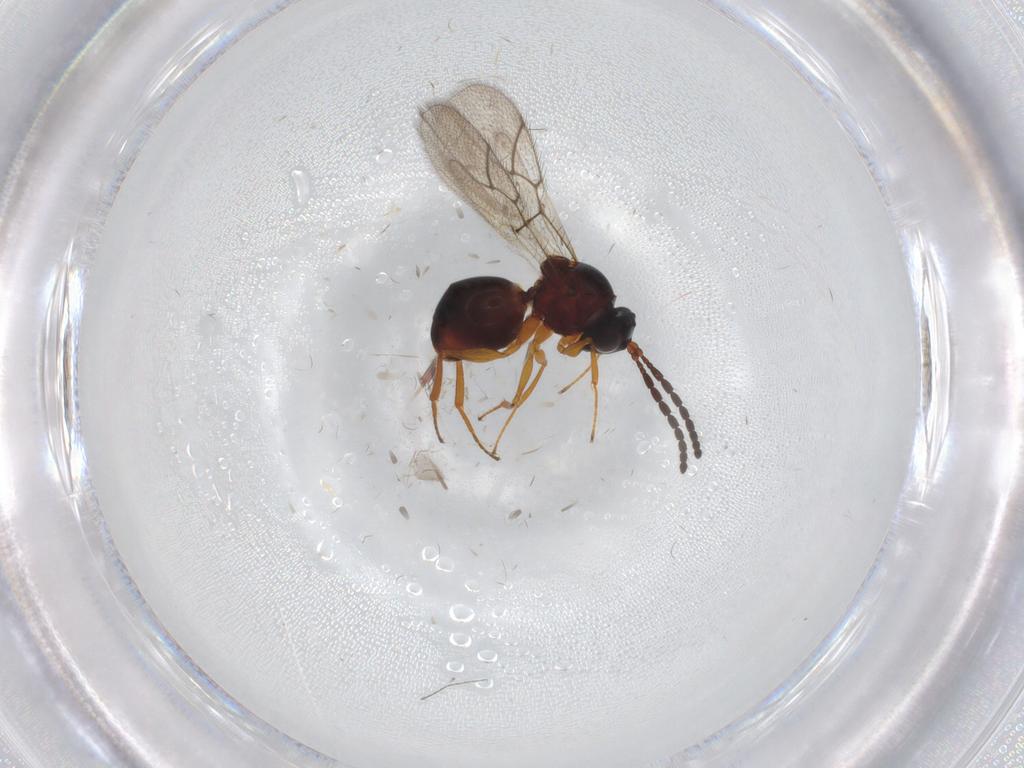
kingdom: Animalia
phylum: Arthropoda
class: Insecta
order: Hymenoptera
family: Figitidae
